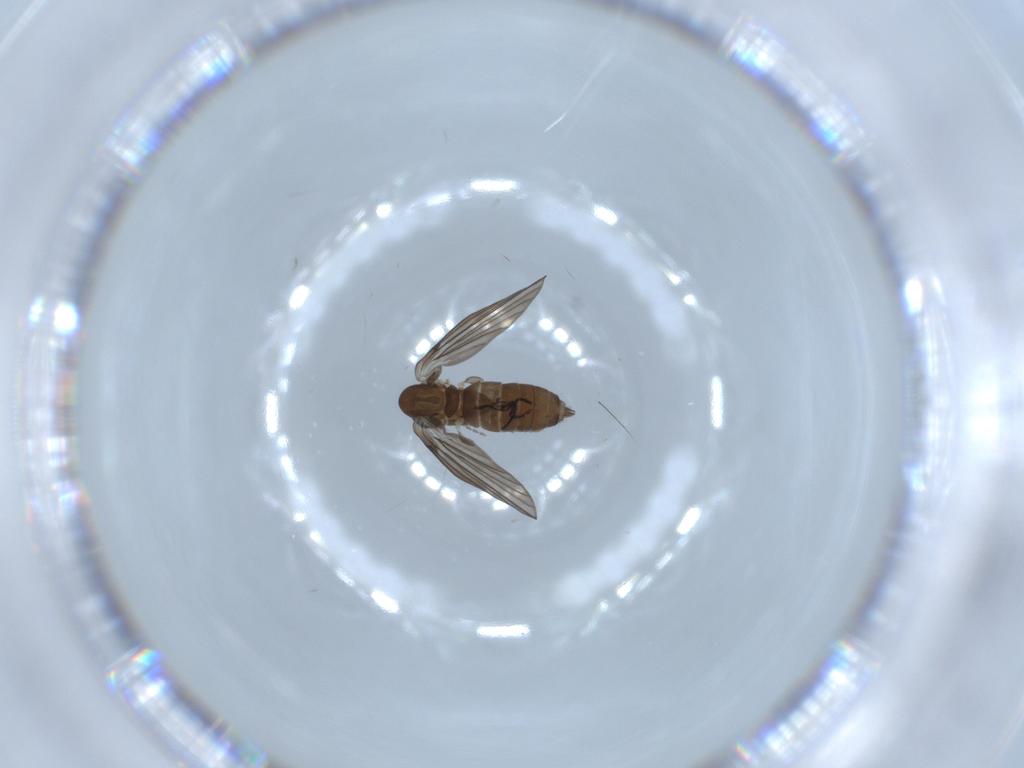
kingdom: Animalia
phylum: Arthropoda
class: Insecta
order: Diptera
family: Psychodidae
